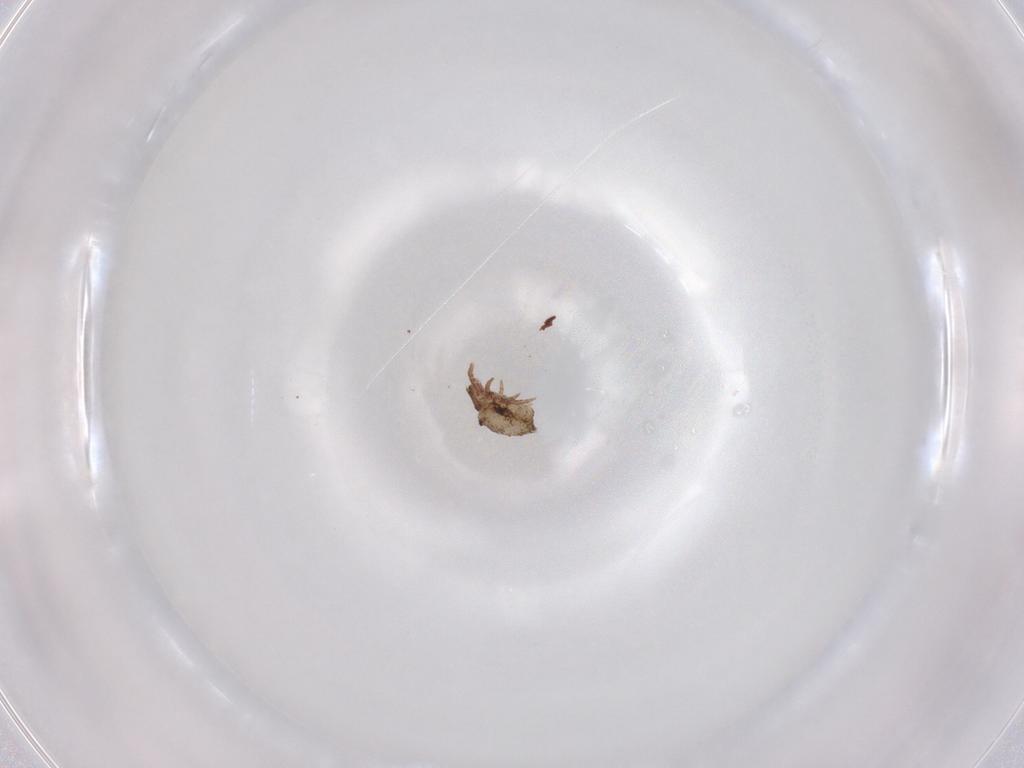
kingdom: Animalia
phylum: Arthropoda
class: Arachnida
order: Sarcoptiformes
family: Crotoniidae
